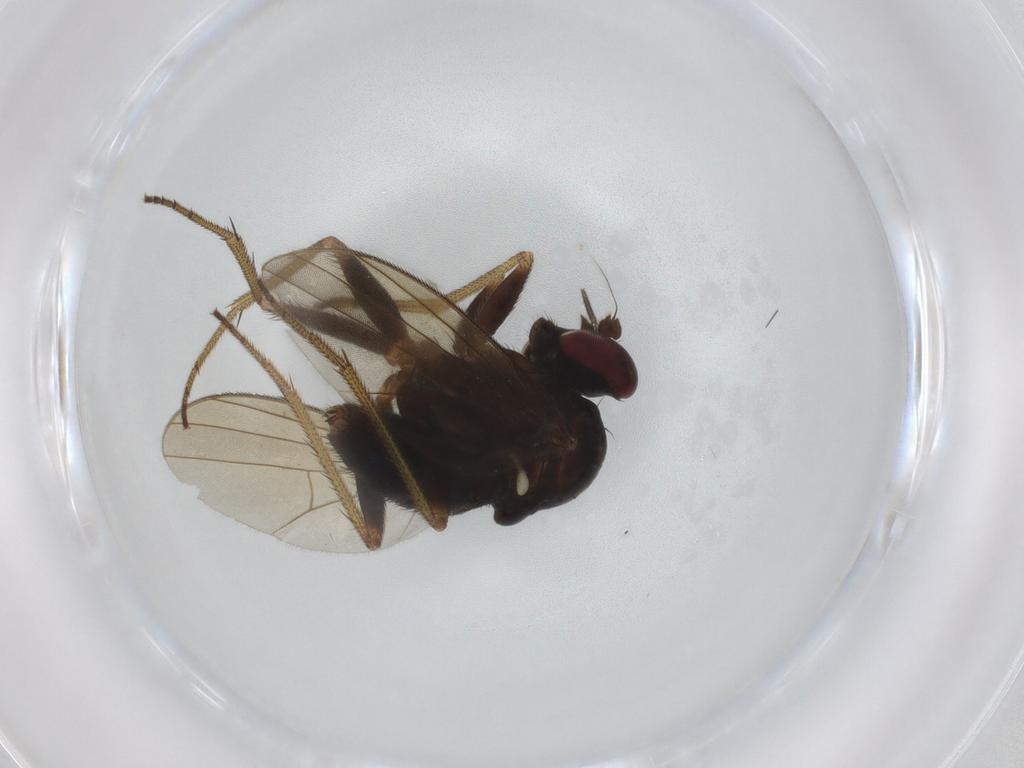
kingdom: Animalia
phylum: Arthropoda
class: Insecta
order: Diptera
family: Dolichopodidae
